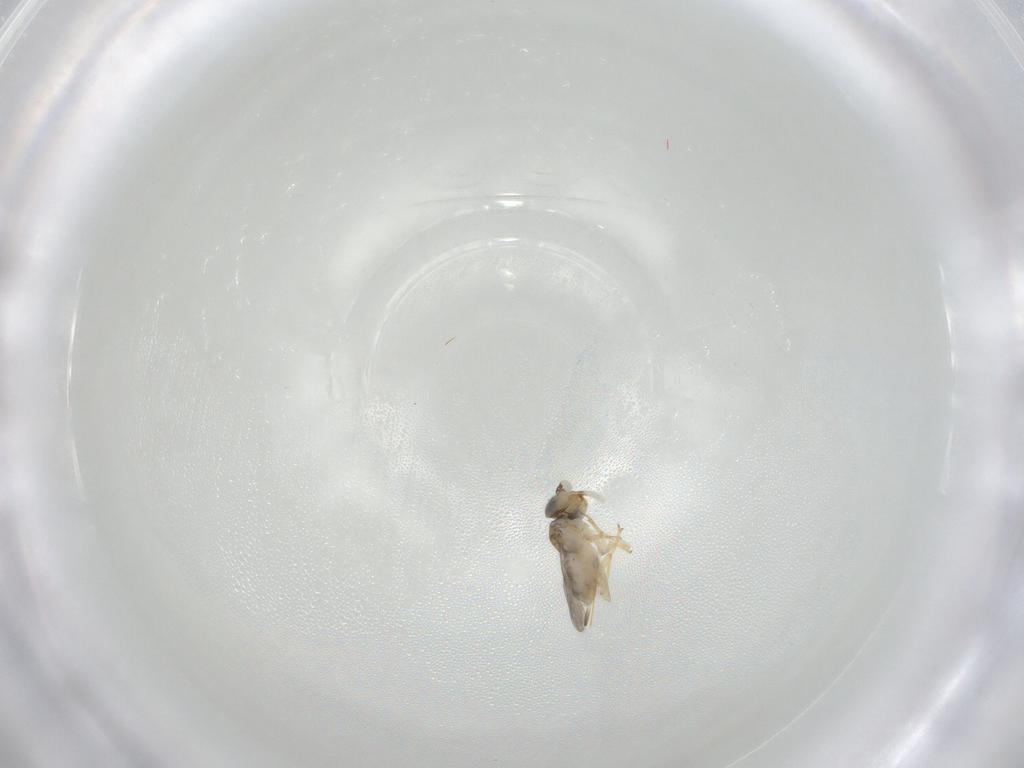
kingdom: Animalia
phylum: Arthropoda
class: Insecta
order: Hymenoptera
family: Encyrtidae
